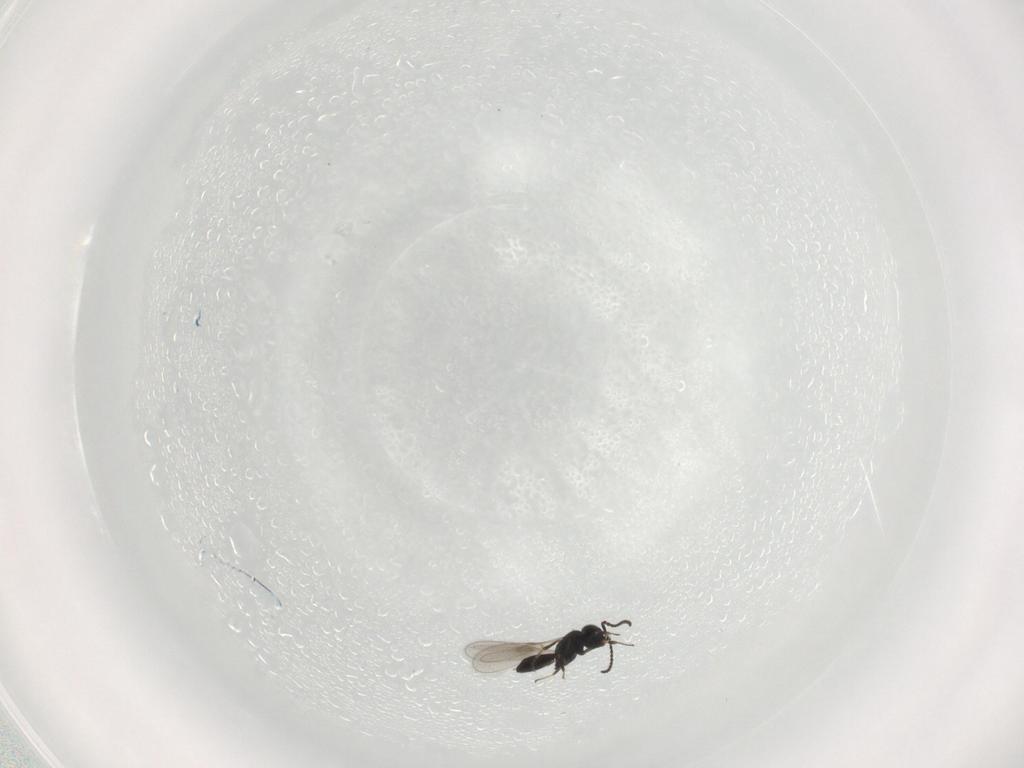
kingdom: Animalia
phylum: Arthropoda
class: Insecta
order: Hymenoptera
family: Scelionidae
